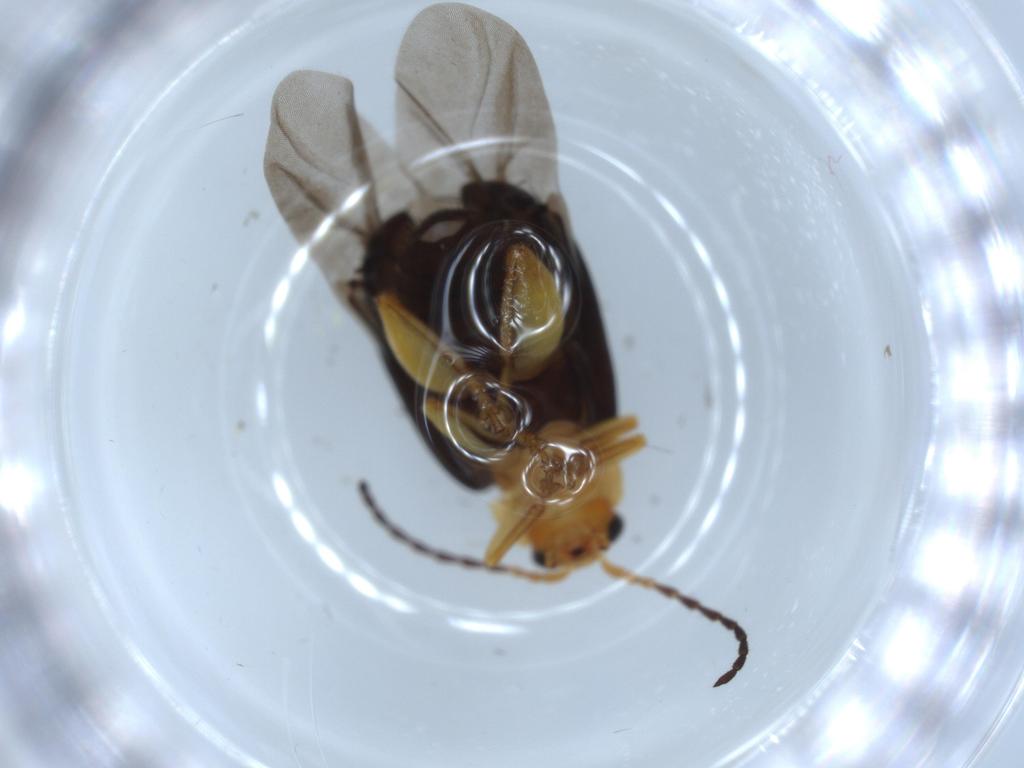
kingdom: Animalia
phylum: Arthropoda
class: Insecta
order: Coleoptera
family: Chrysomelidae
